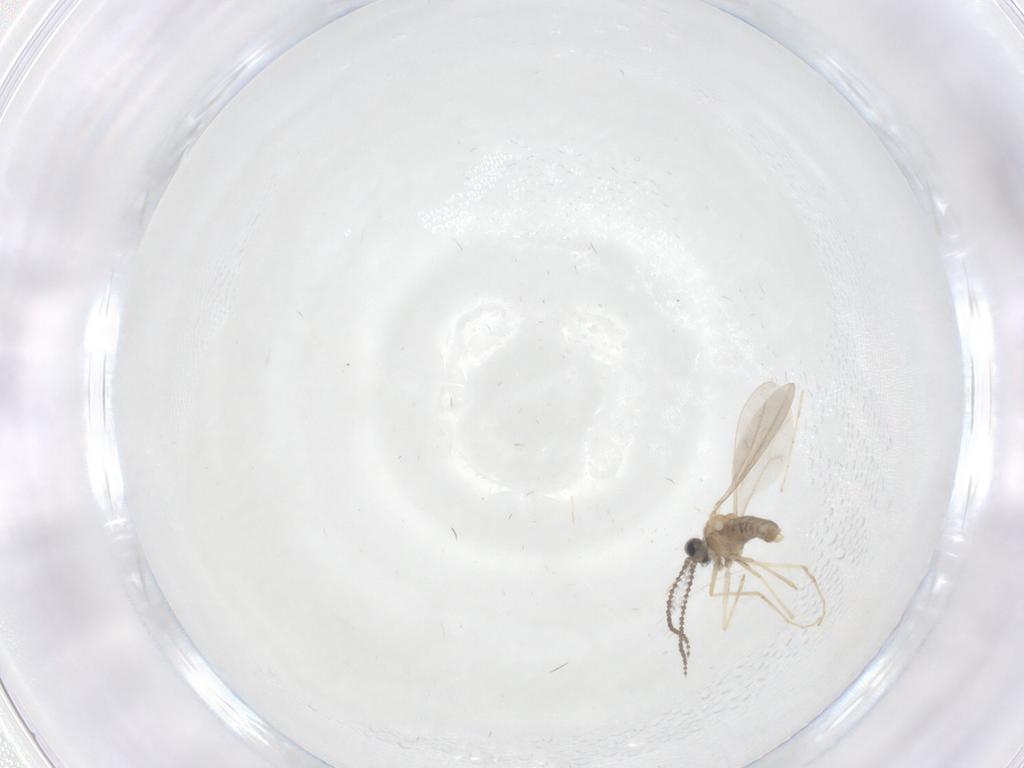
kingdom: Animalia
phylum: Arthropoda
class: Insecta
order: Diptera
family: Cecidomyiidae
